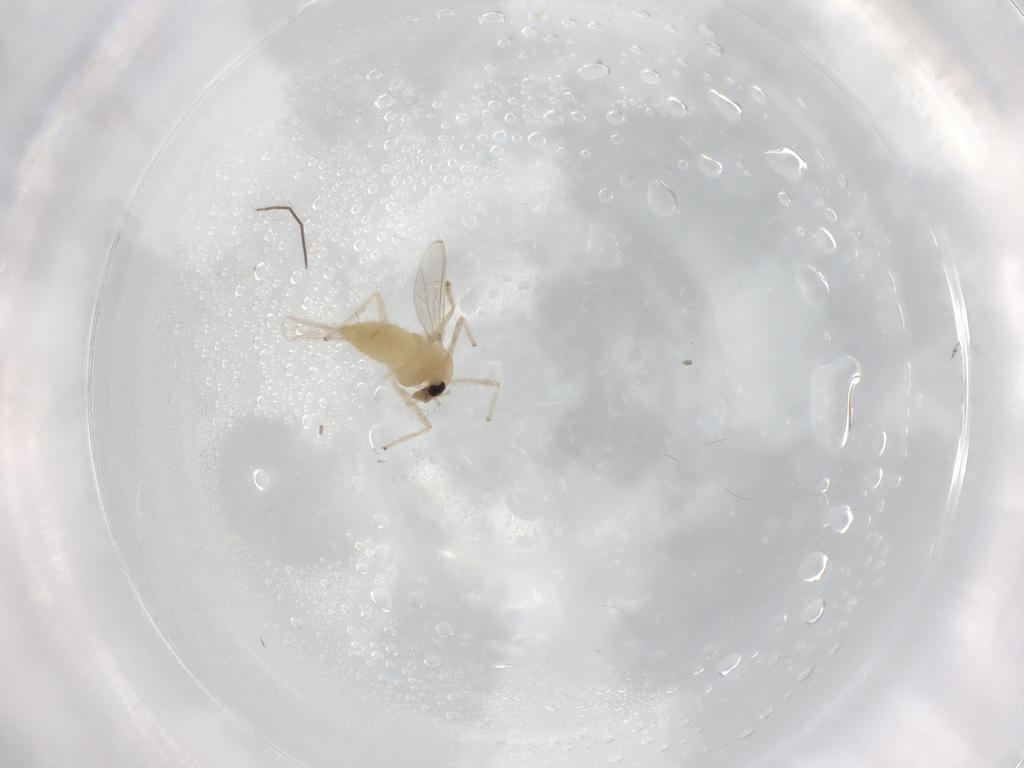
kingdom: Animalia
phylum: Arthropoda
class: Insecta
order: Diptera
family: Chironomidae
